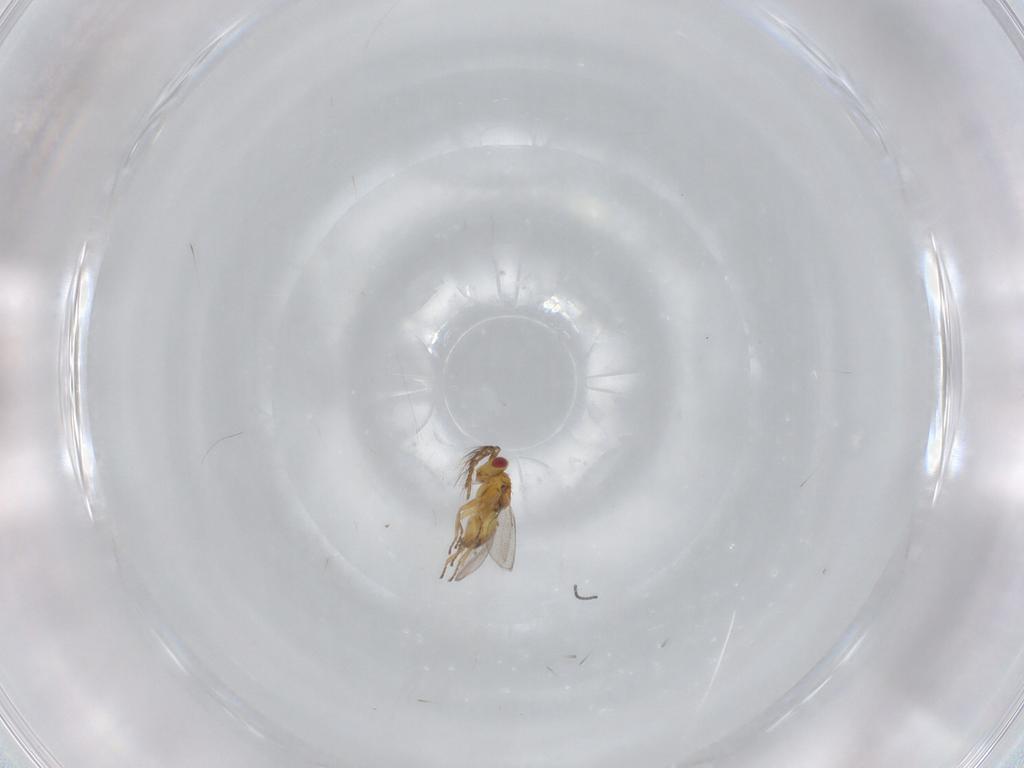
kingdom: Animalia
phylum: Arthropoda
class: Insecta
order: Hymenoptera
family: Eulophidae
